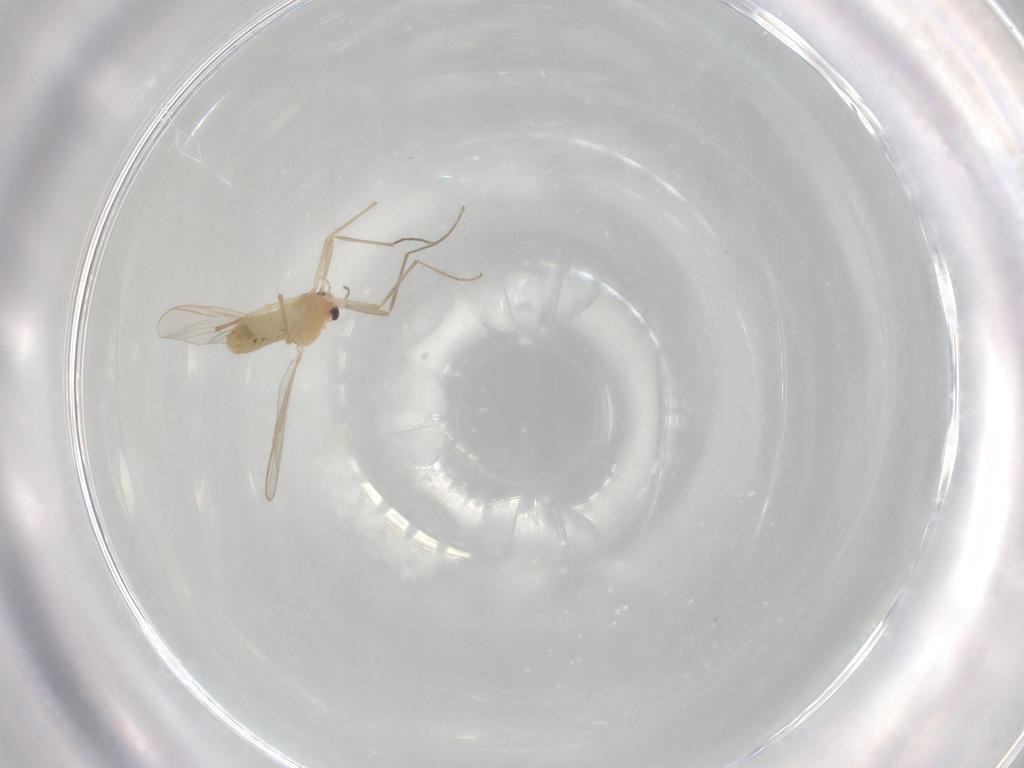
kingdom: Animalia
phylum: Arthropoda
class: Insecta
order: Diptera
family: Chironomidae
